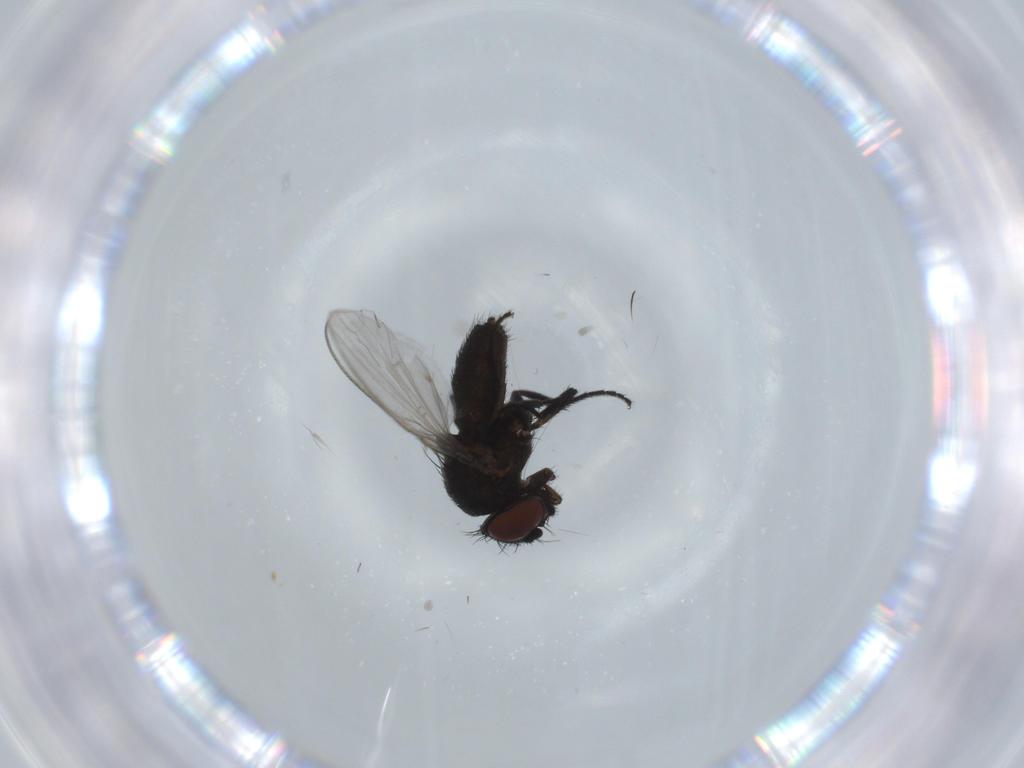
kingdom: Animalia
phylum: Arthropoda
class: Insecta
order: Diptera
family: Milichiidae
